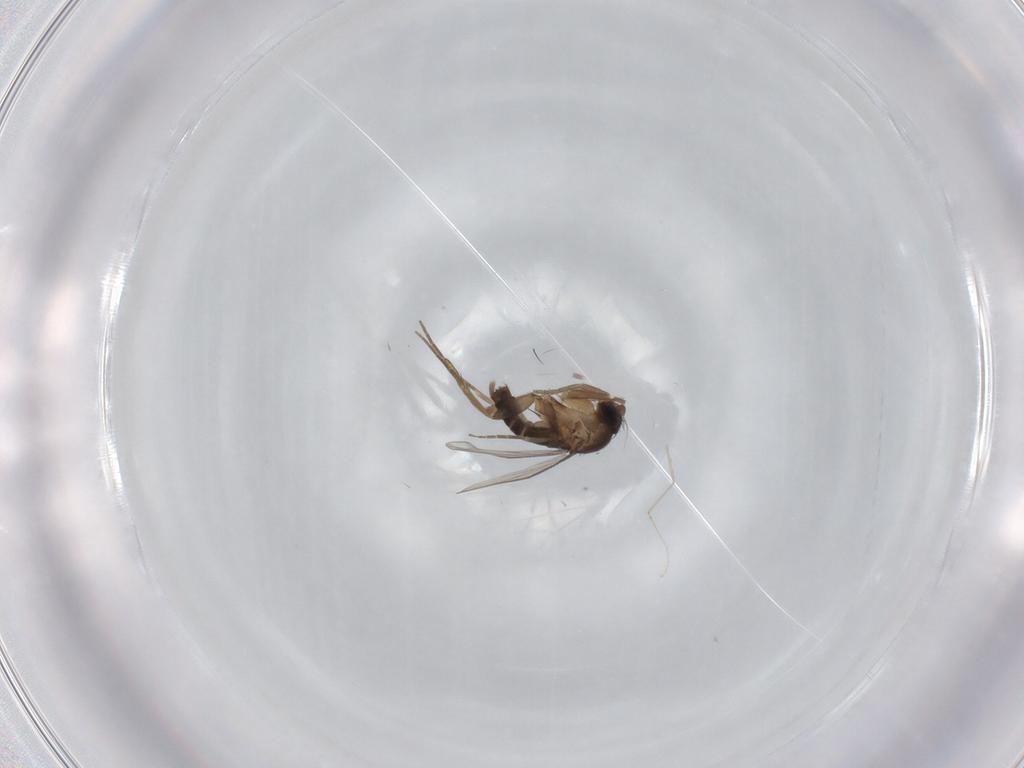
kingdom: Animalia
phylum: Arthropoda
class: Insecta
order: Diptera
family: Phoridae
